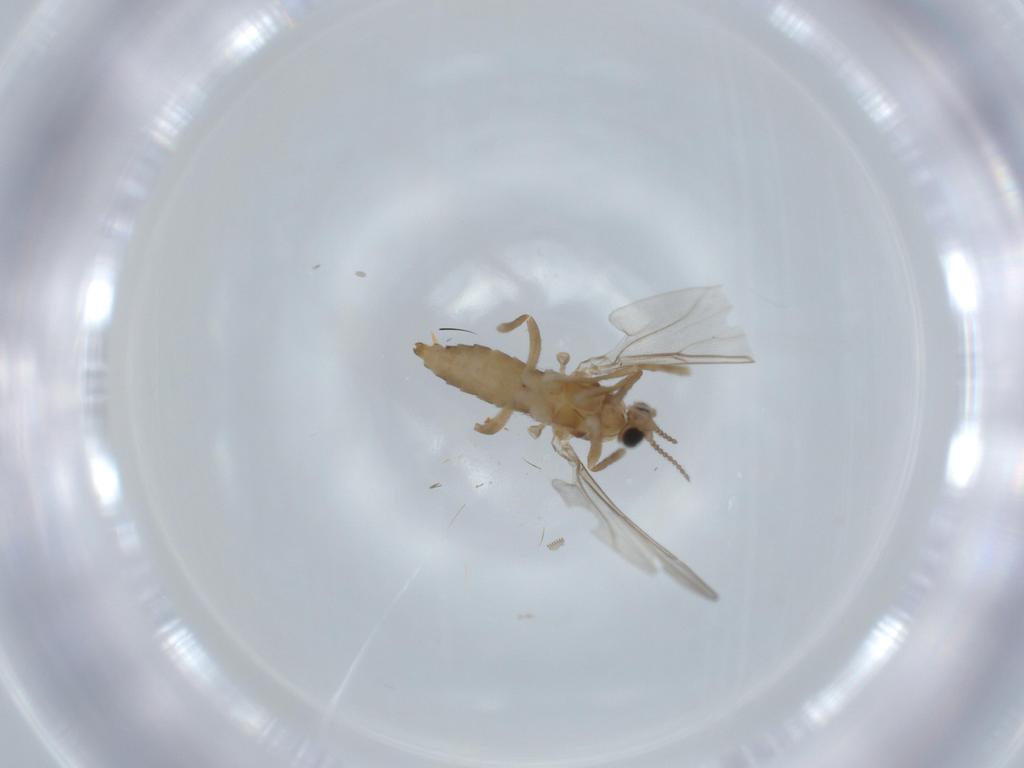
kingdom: Animalia
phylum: Arthropoda
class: Insecta
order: Diptera
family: Cecidomyiidae
